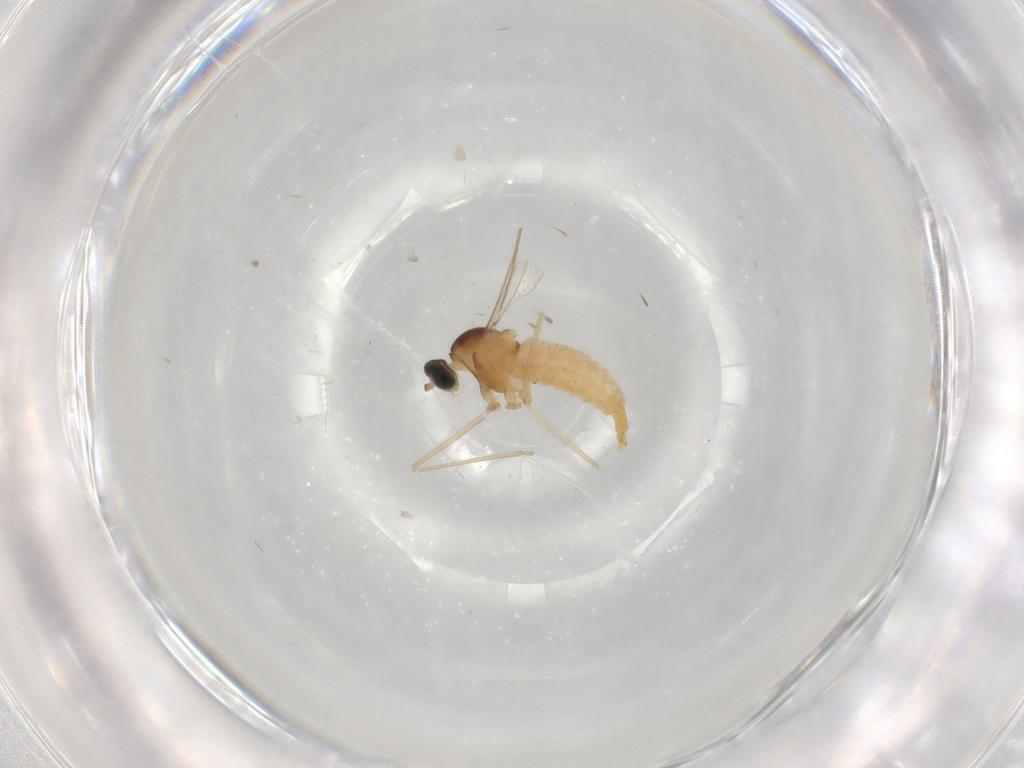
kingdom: Animalia
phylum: Arthropoda
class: Insecta
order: Diptera
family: Cecidomyiidae
